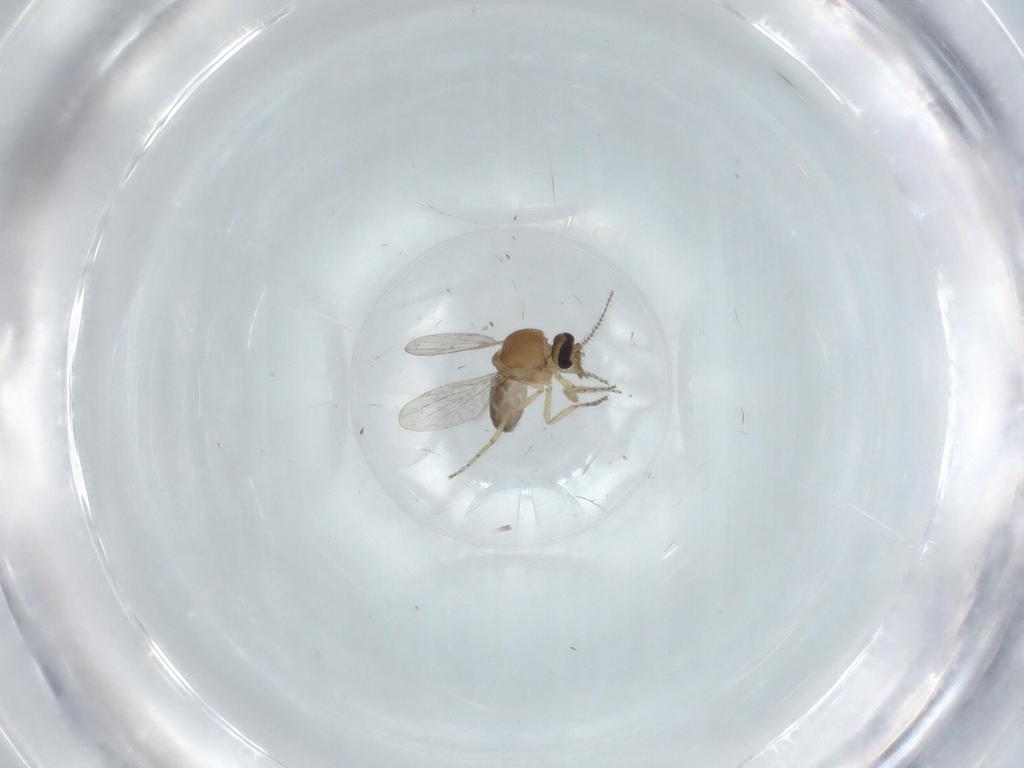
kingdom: Animalia
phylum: Arthropoda
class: Insecta
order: Diptera
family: Ceratopogonidae
